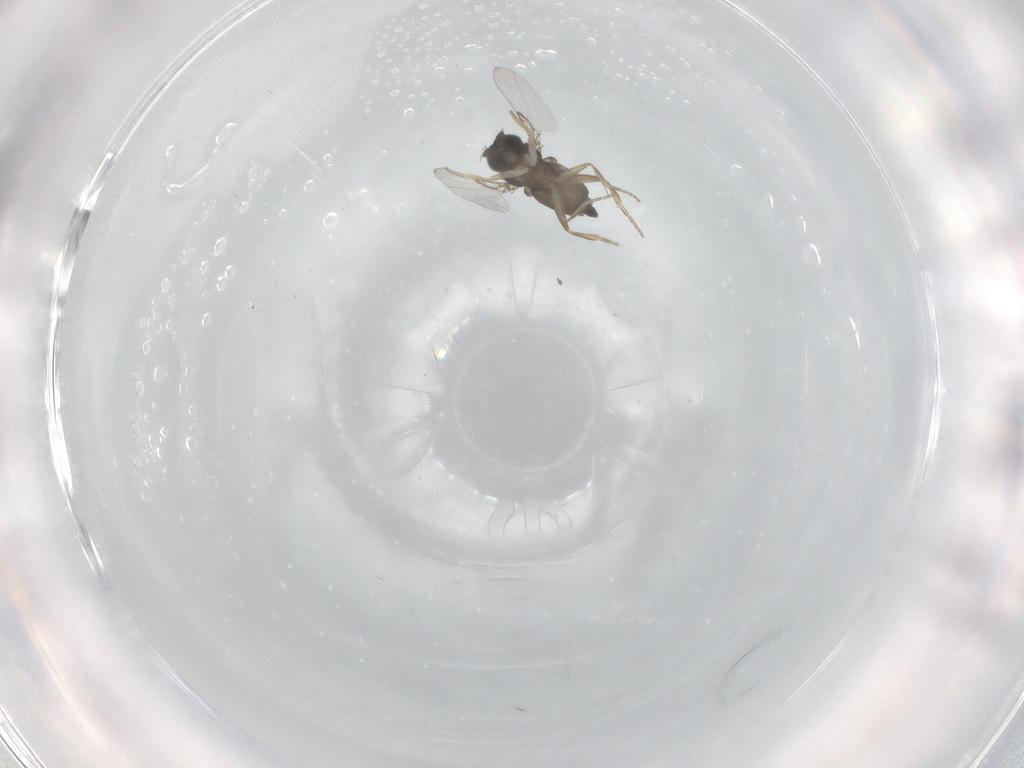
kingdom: Animalia
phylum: Arthropoda
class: Insecta
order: Diptera
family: Phoridae
